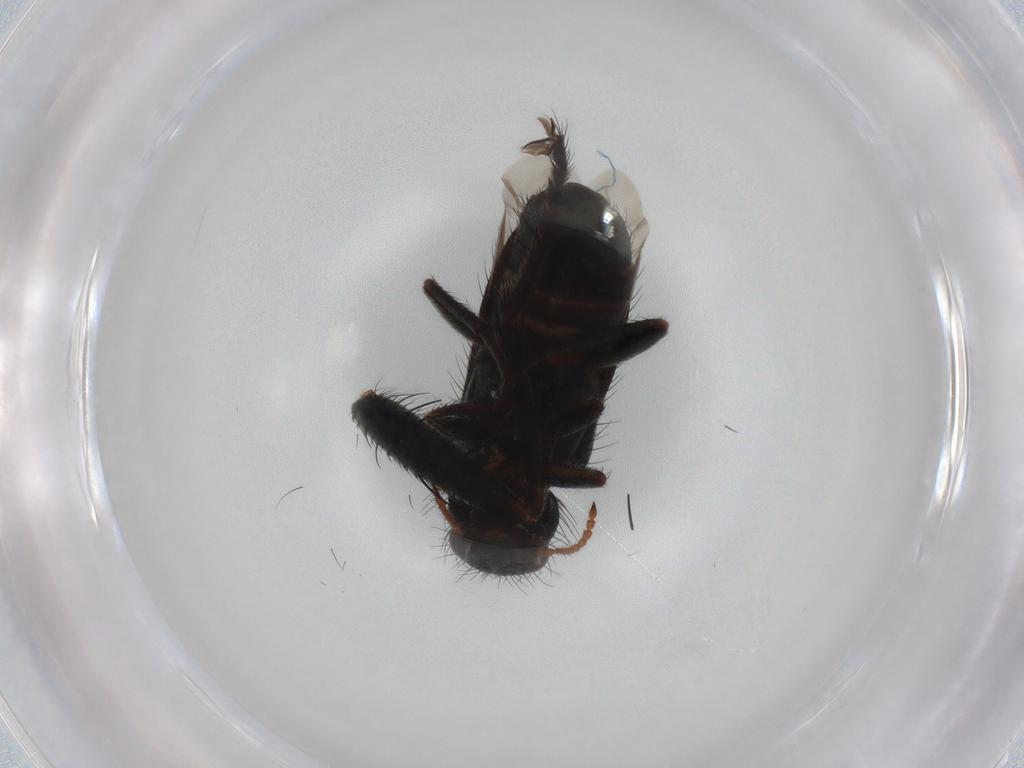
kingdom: Animalia
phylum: Arthropoda
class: Insecta
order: Coleoptera
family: Melyridae
